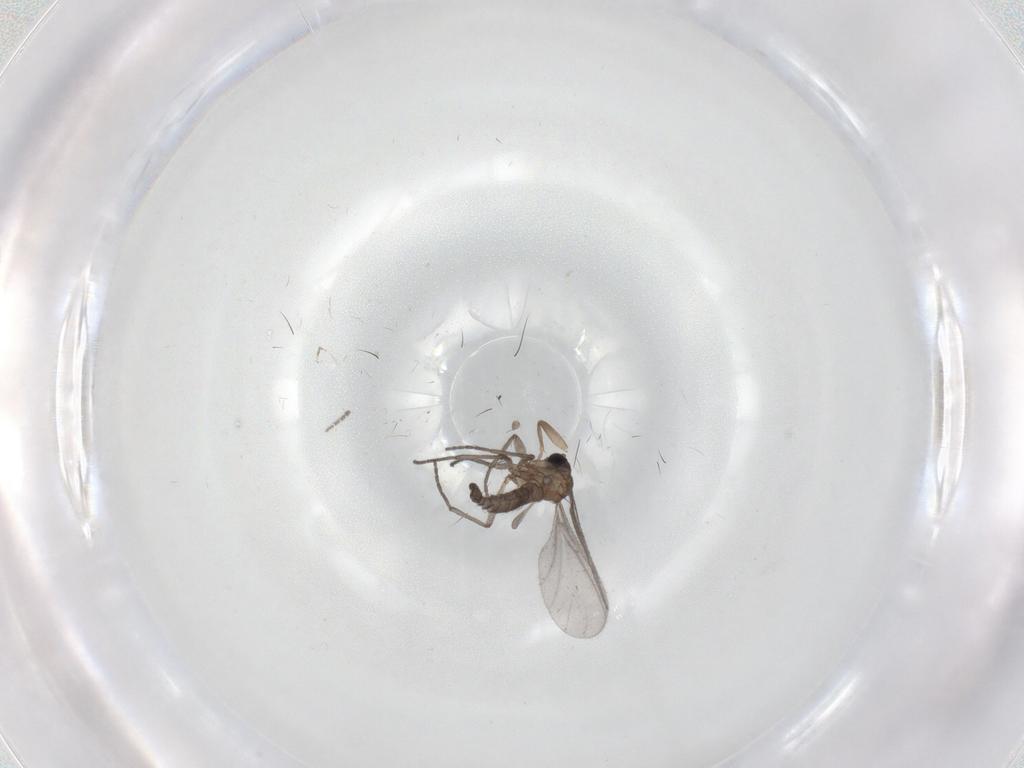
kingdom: Animalia
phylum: Arthropoda
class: Insecta
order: Diptera
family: Sciaridae
